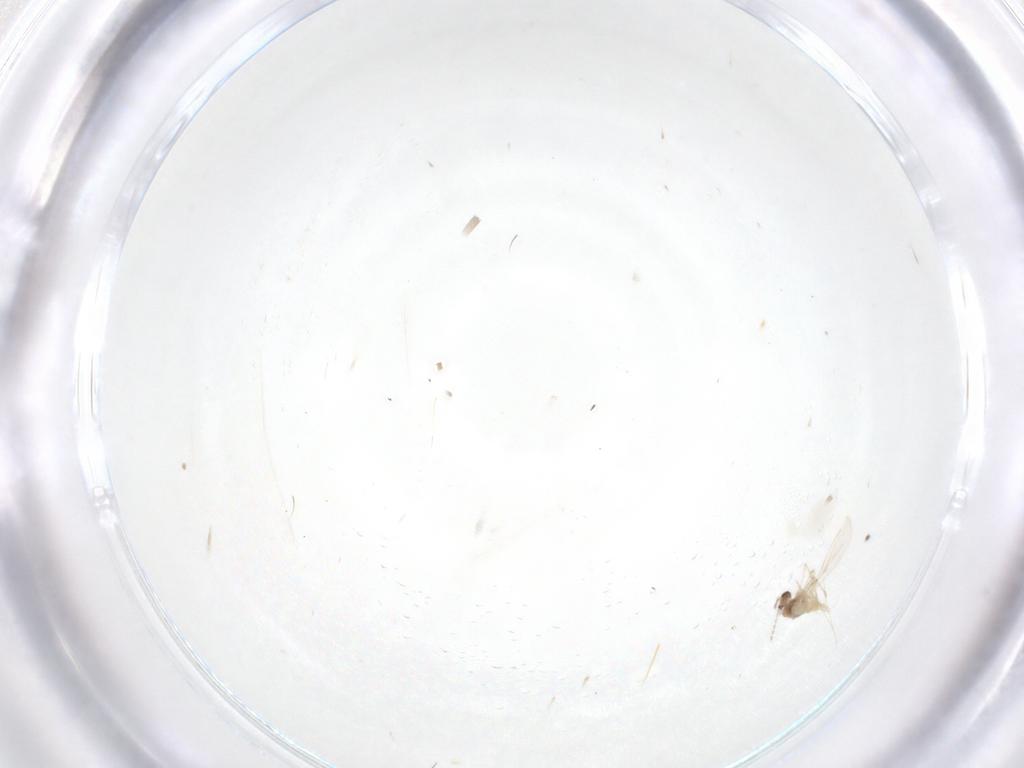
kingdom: Animalia
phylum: Arthropoda
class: Insecta
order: Diptera
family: Cecidomyiidae
